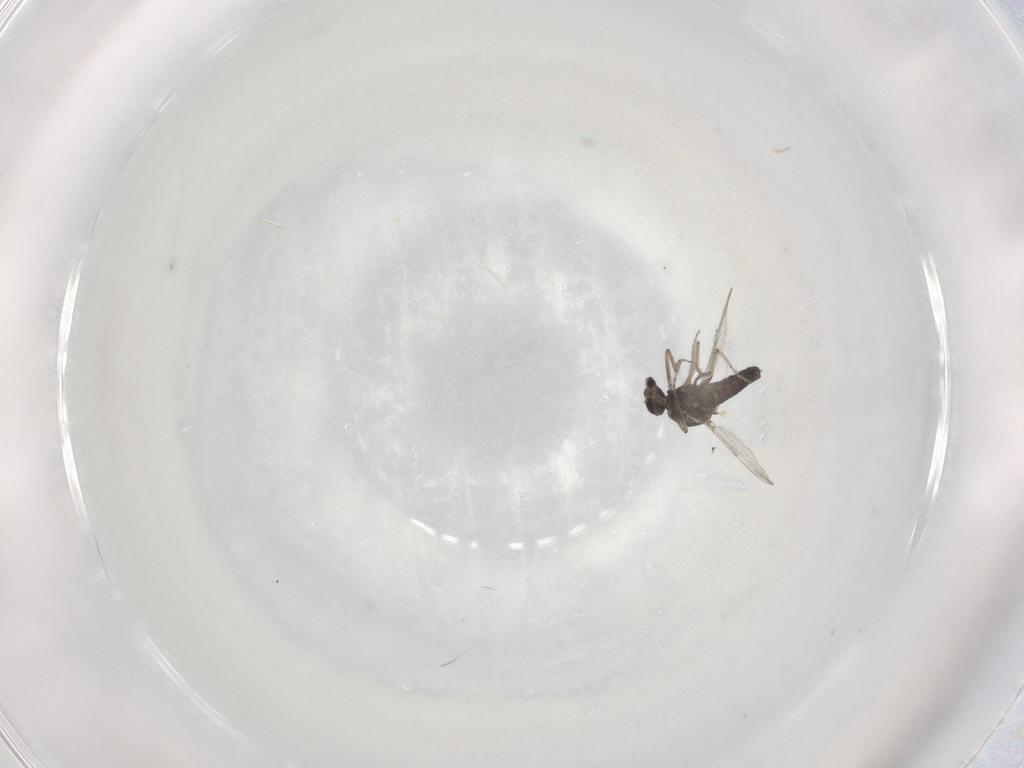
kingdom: Animalia
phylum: Arthropoda
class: Insecta
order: Diptera
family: Ceratopogonidae
